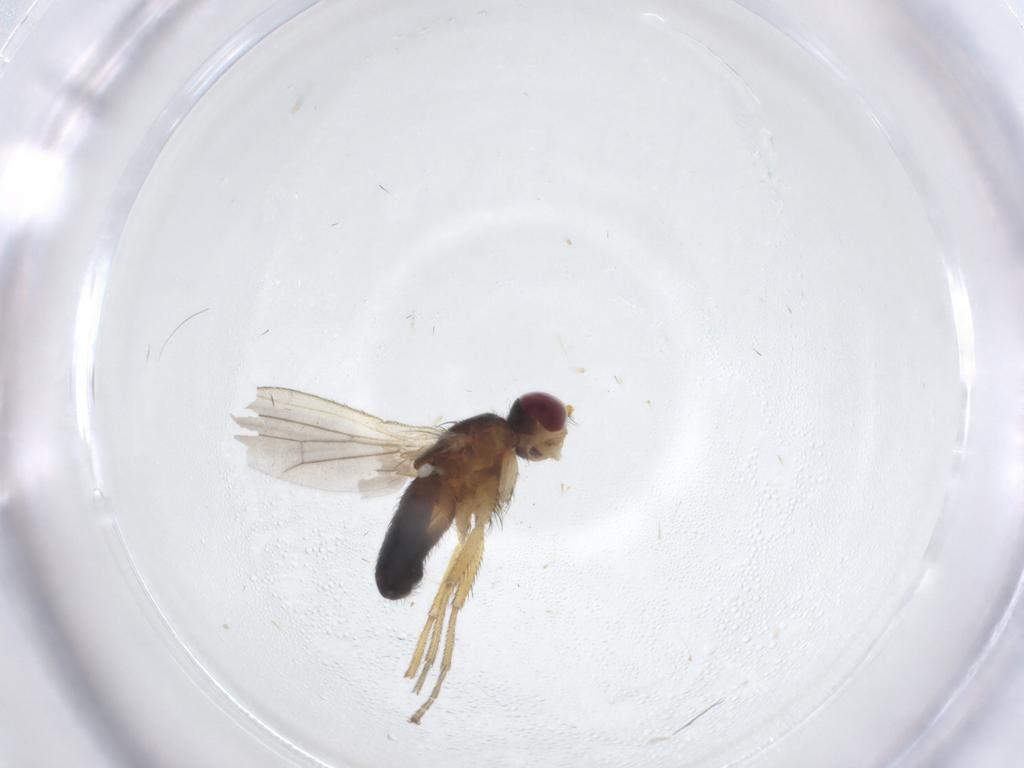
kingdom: Animalia
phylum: Arthropoda
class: Insecta
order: Diptera
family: Heleomyzidae
